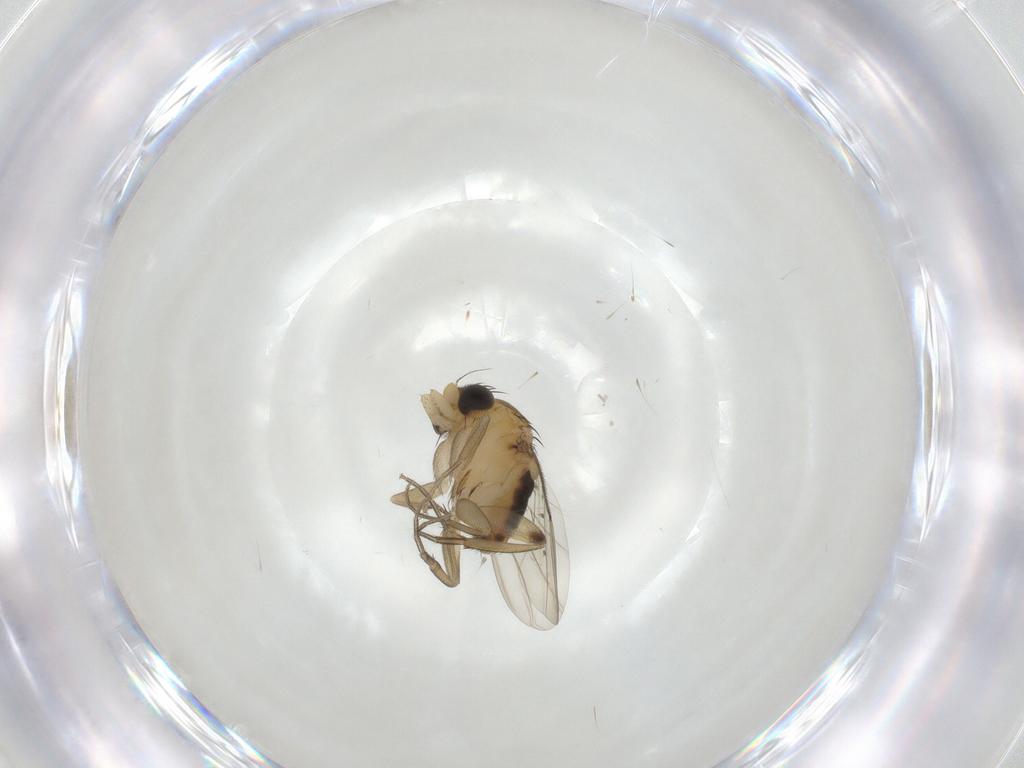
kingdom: Animalia
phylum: Arthropoda
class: Insecta
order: Diptera
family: Phoridae
